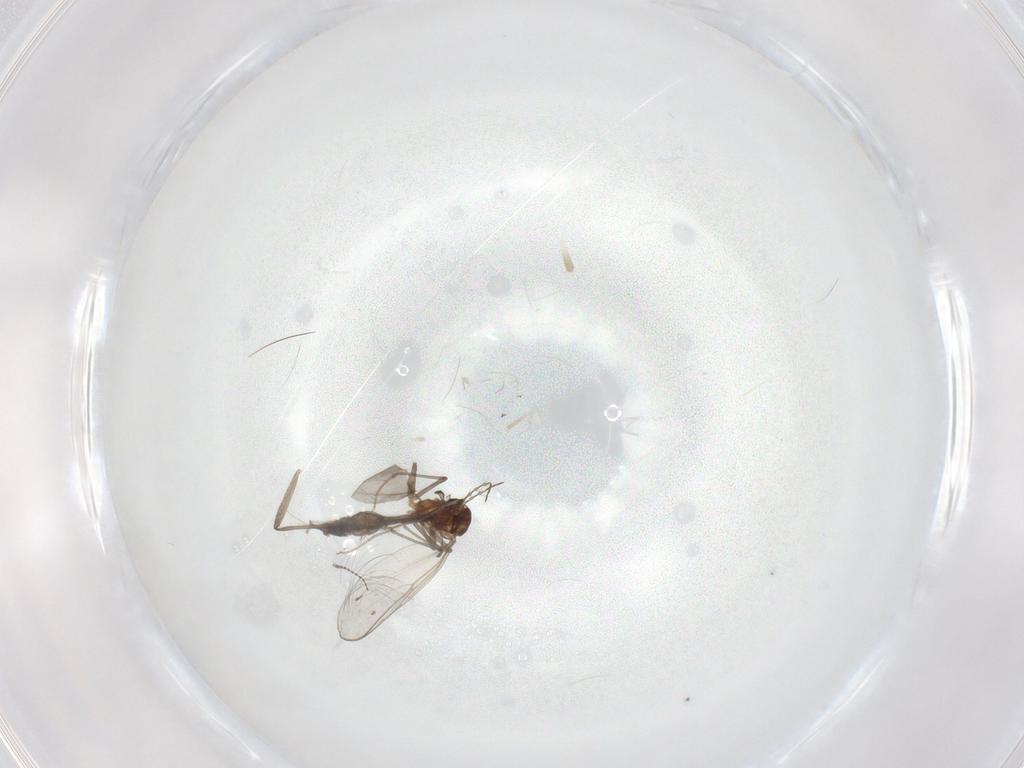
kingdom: Animalia
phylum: Arthropoda
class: Insecta
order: Diptera
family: Chironomidae
